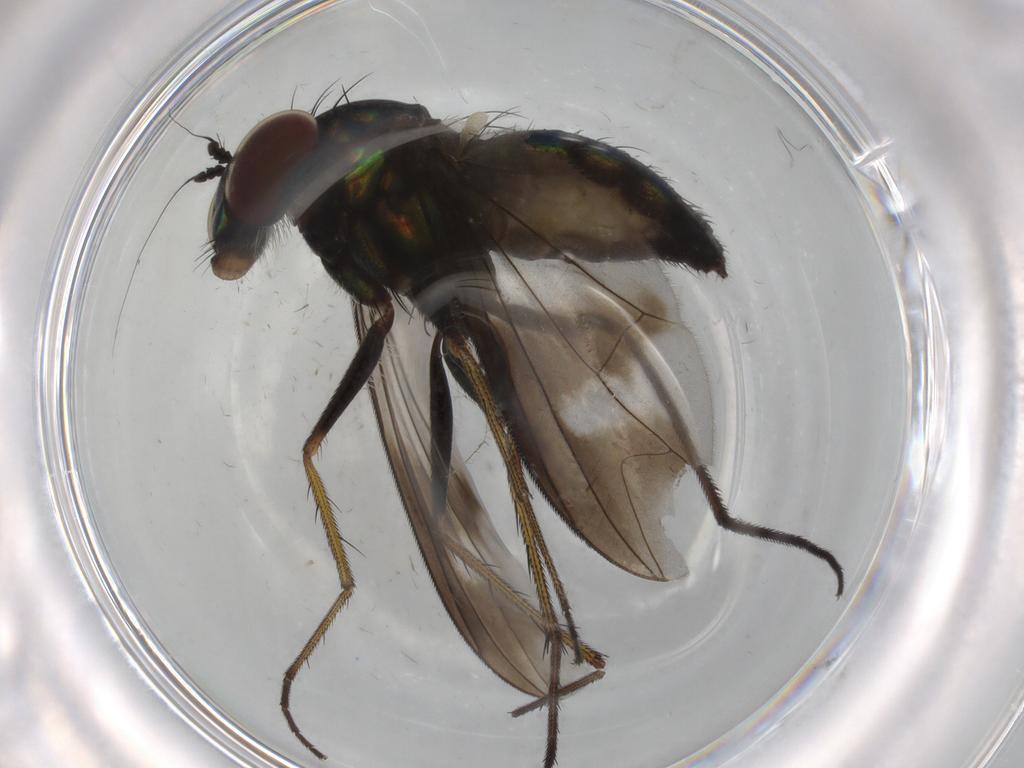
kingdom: Animalia
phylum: Arthropoda
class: Insecta
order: Diptera
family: Dolichopodidae
